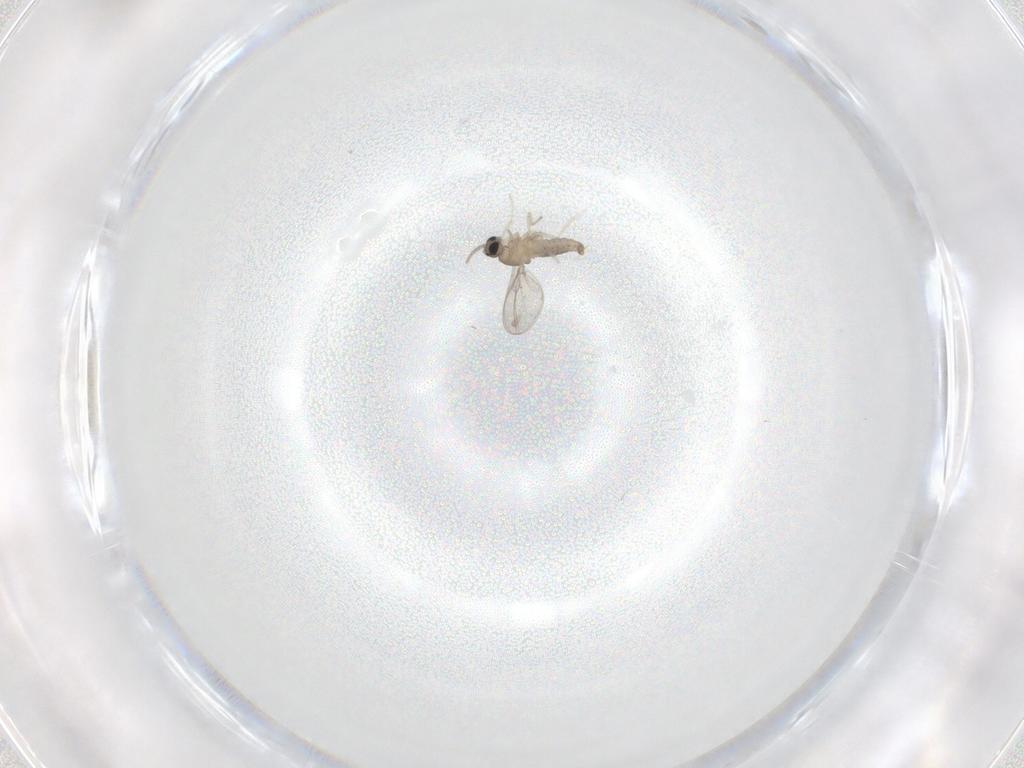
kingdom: Animalia
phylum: Arthropoda
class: Insecta
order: Diptera
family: Cecidomyiidae
